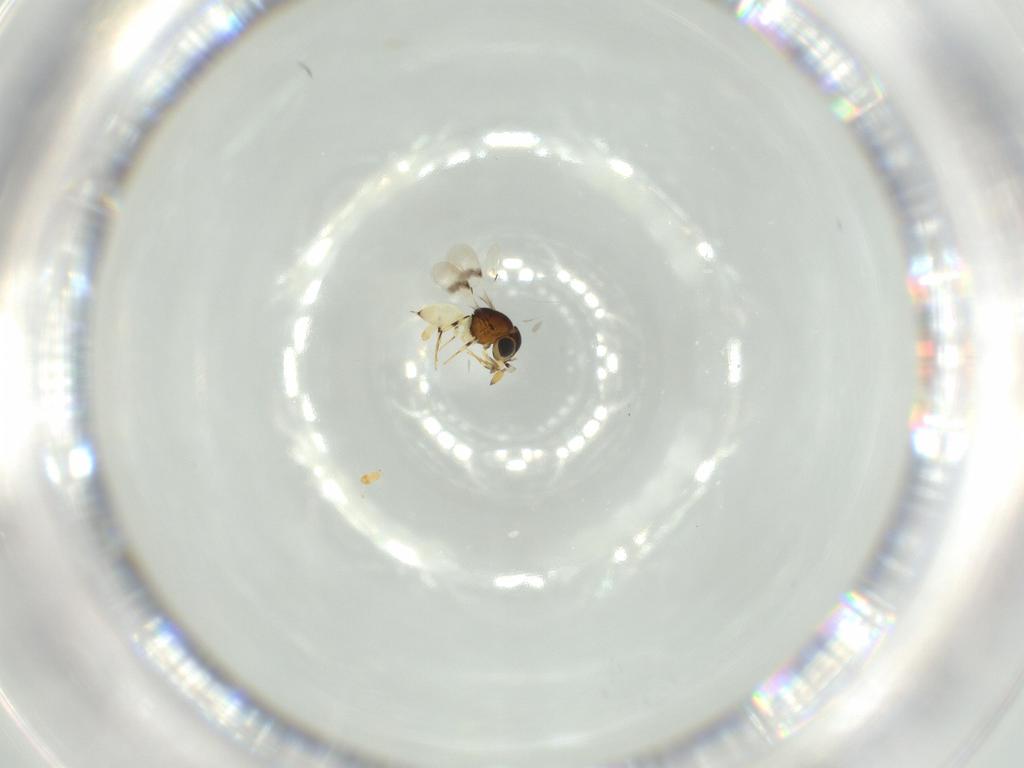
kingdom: Animalia
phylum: Arthropoda
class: Insecta
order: Hymenoptera
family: Scelionidae
